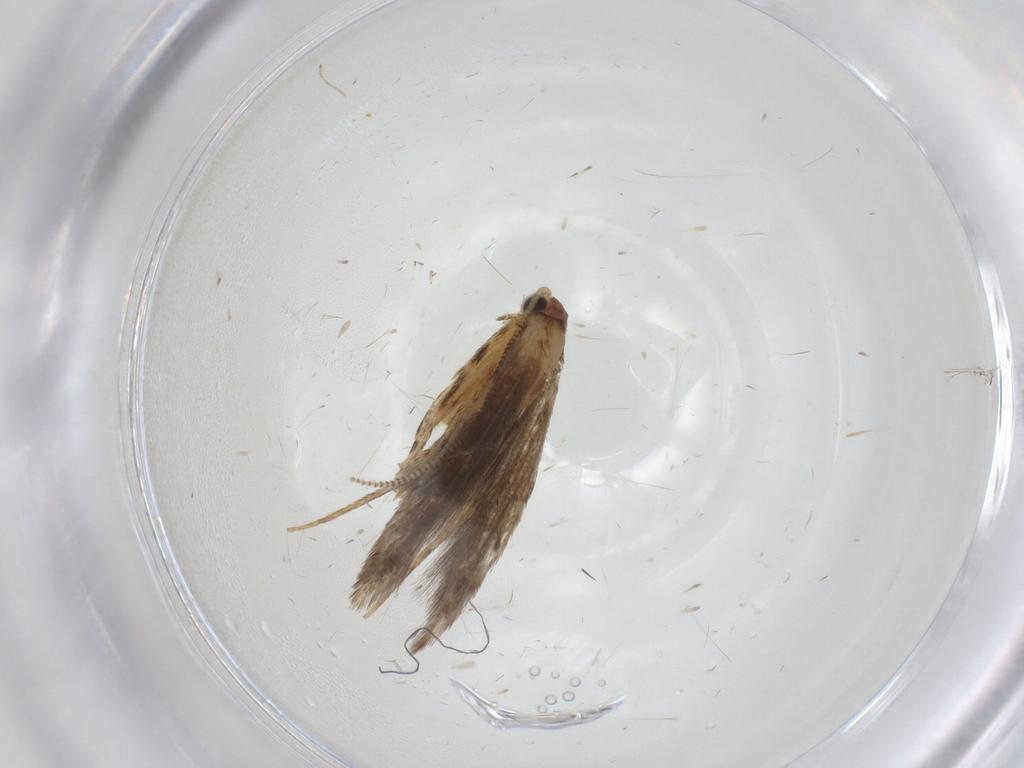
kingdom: Animalia
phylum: Arthropoda
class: Insecta
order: Lepidoptera
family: Tineidae
